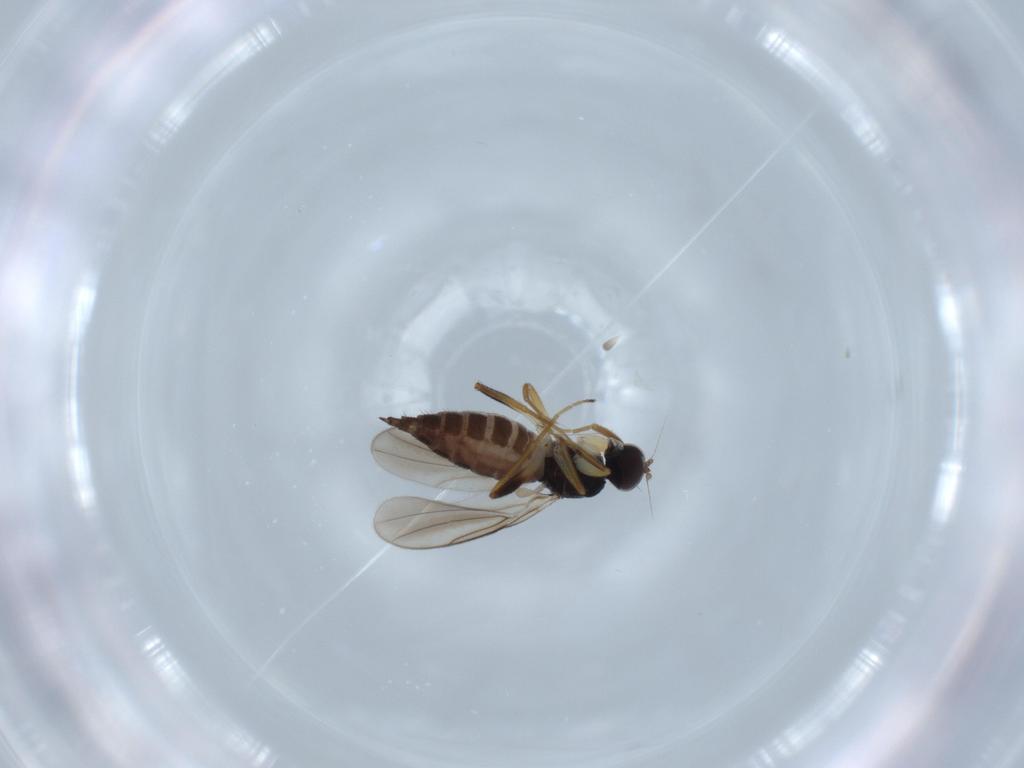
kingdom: Animalia
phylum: Arthropoda
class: Insecta
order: Diptera
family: Hybotidae
